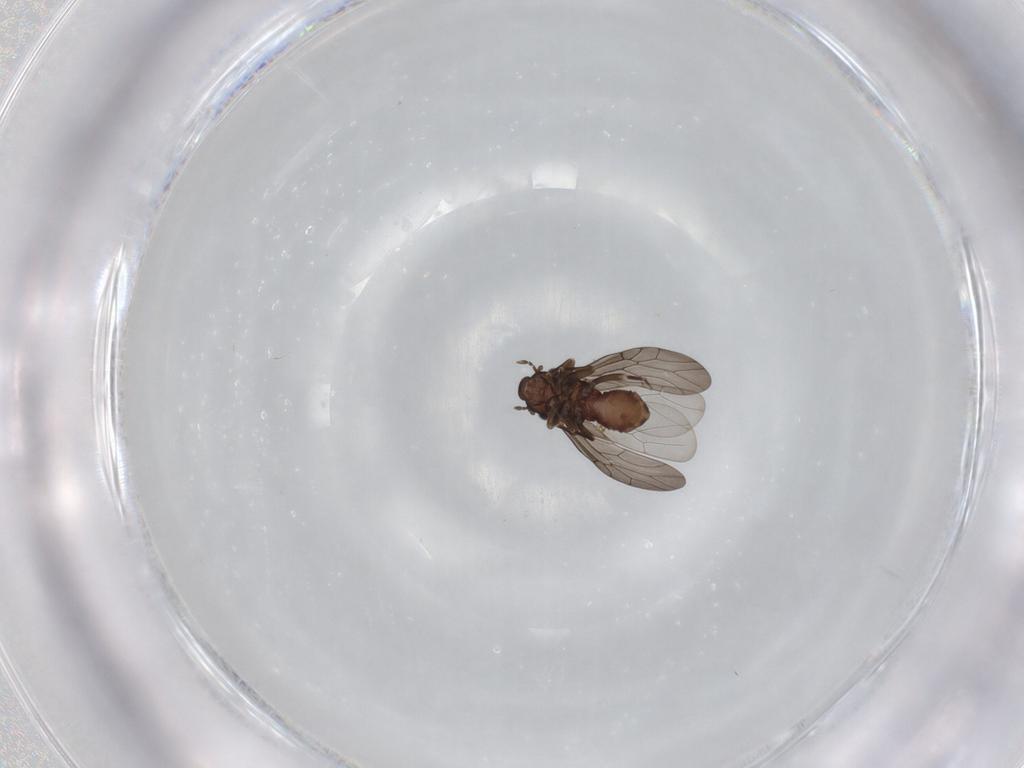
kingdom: Animalia
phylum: Arthropoda
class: Insecta
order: Psocodea
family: Lepidopsocidae
